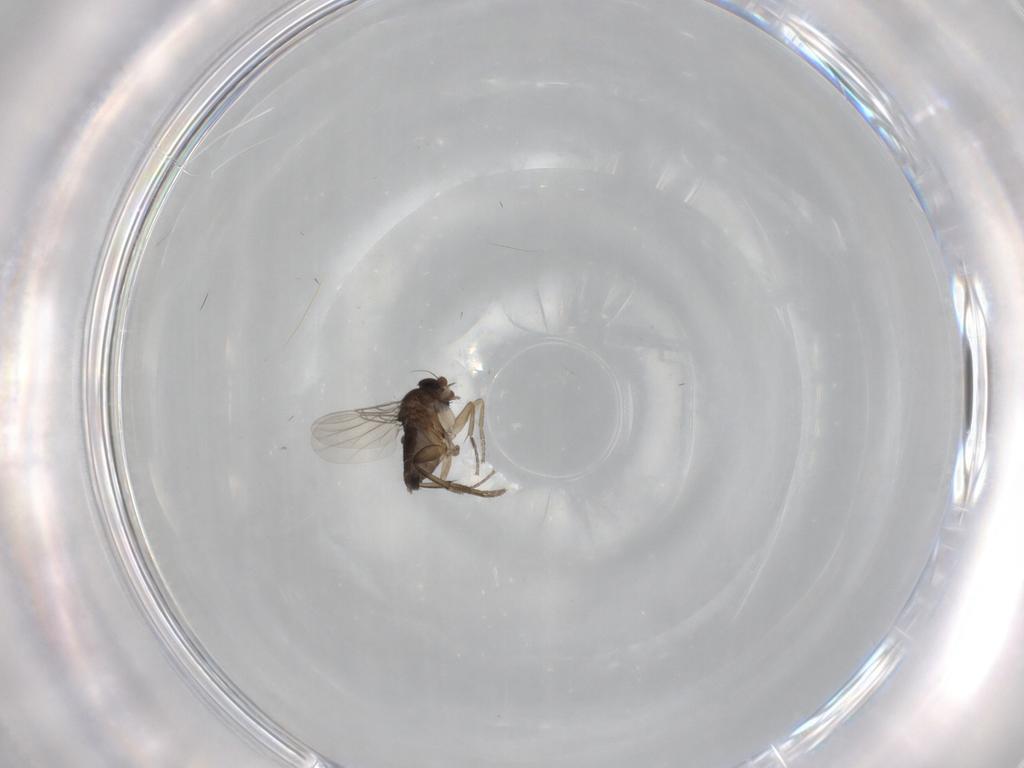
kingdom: Animalia
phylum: Arthropoda
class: Insecta
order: Diptera
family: Cecidomyiidae
